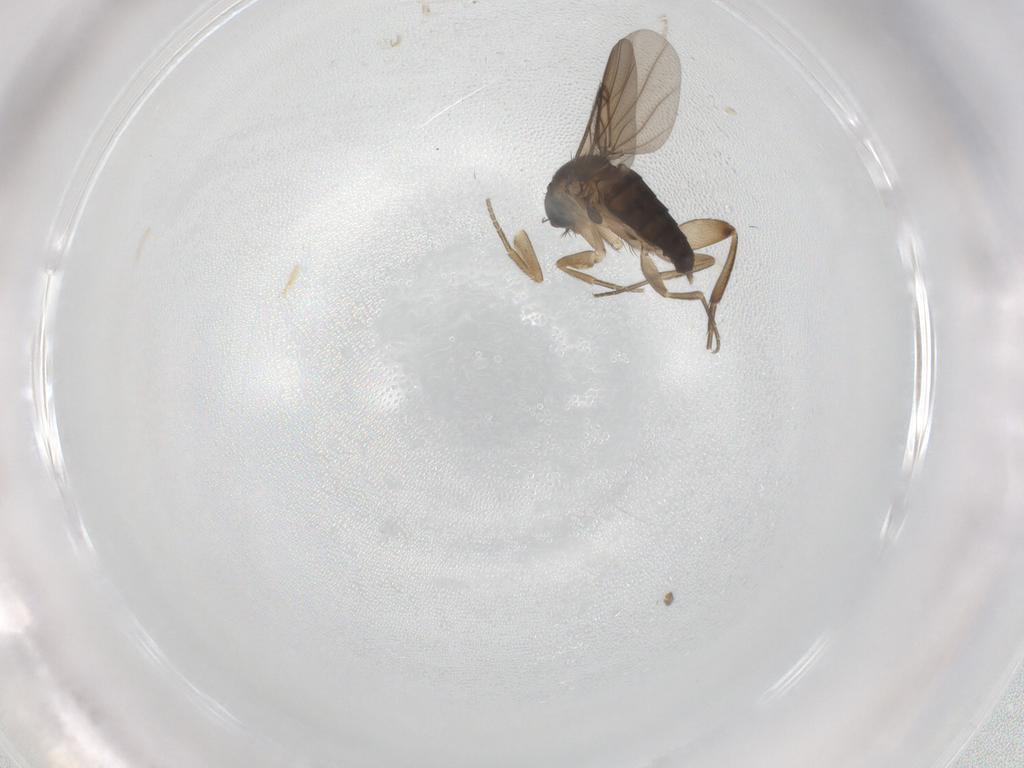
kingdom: Animalia
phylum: Arthropoda
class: Insecta
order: Diptera
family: Phoridae
